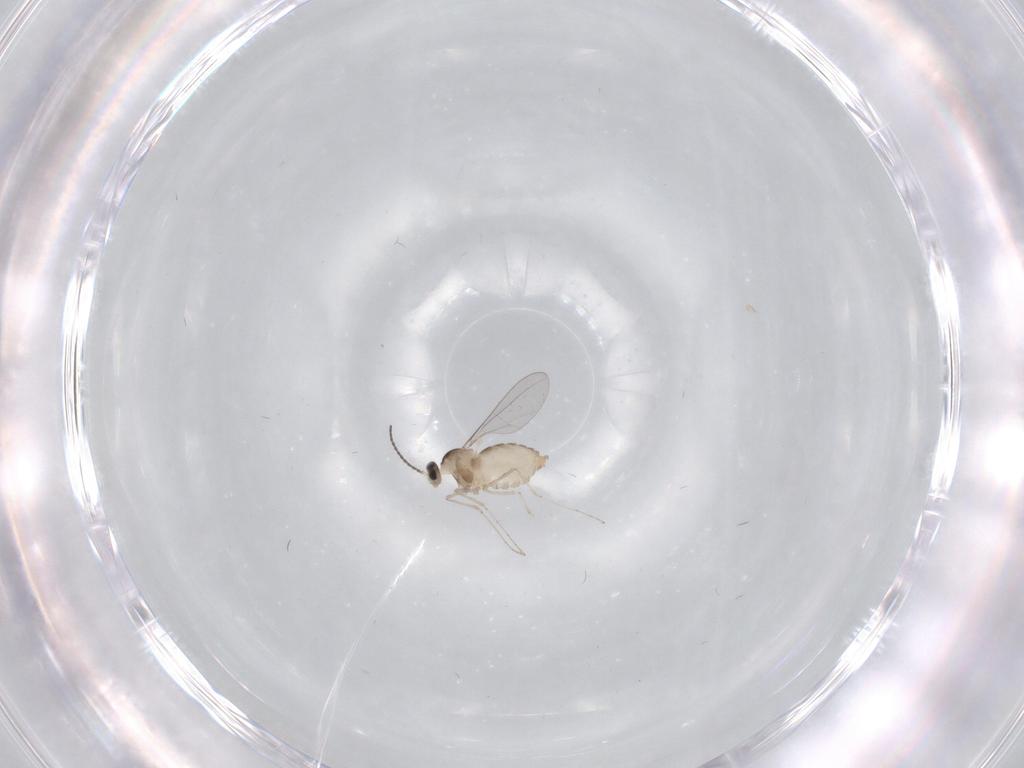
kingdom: Animalia
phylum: Arthropoda
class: Insecta
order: Diptera
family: Cecidomyiidae
